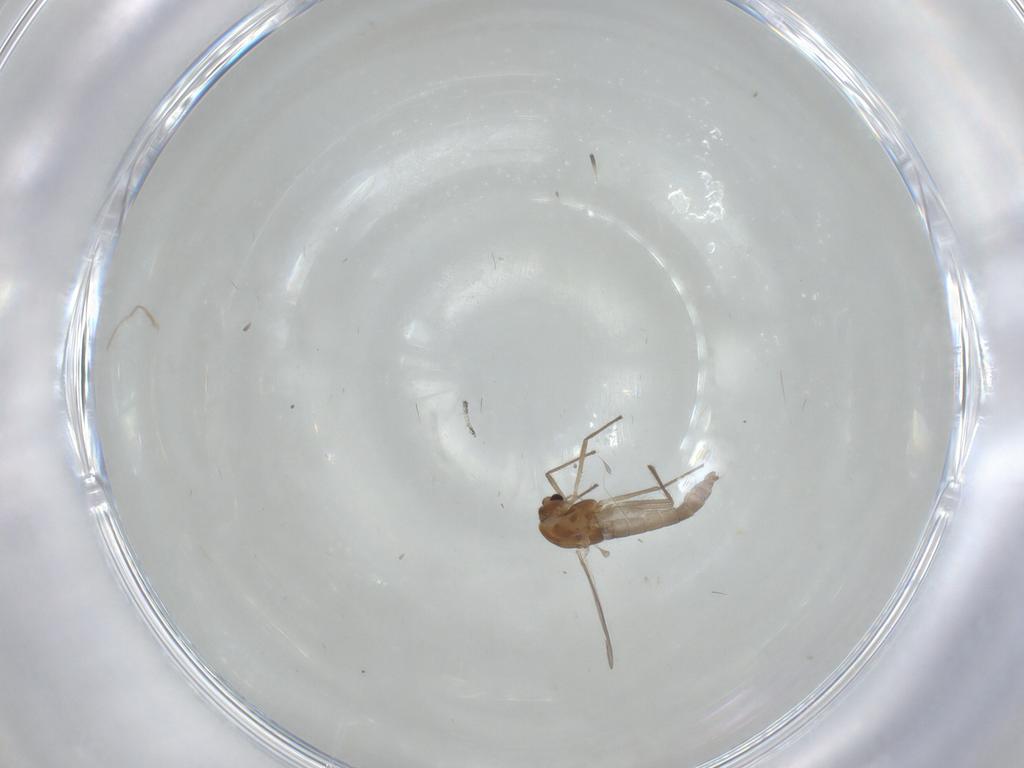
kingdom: Animalia
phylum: Arthropoda
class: Insecta
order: Diptera
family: Chironomidae
